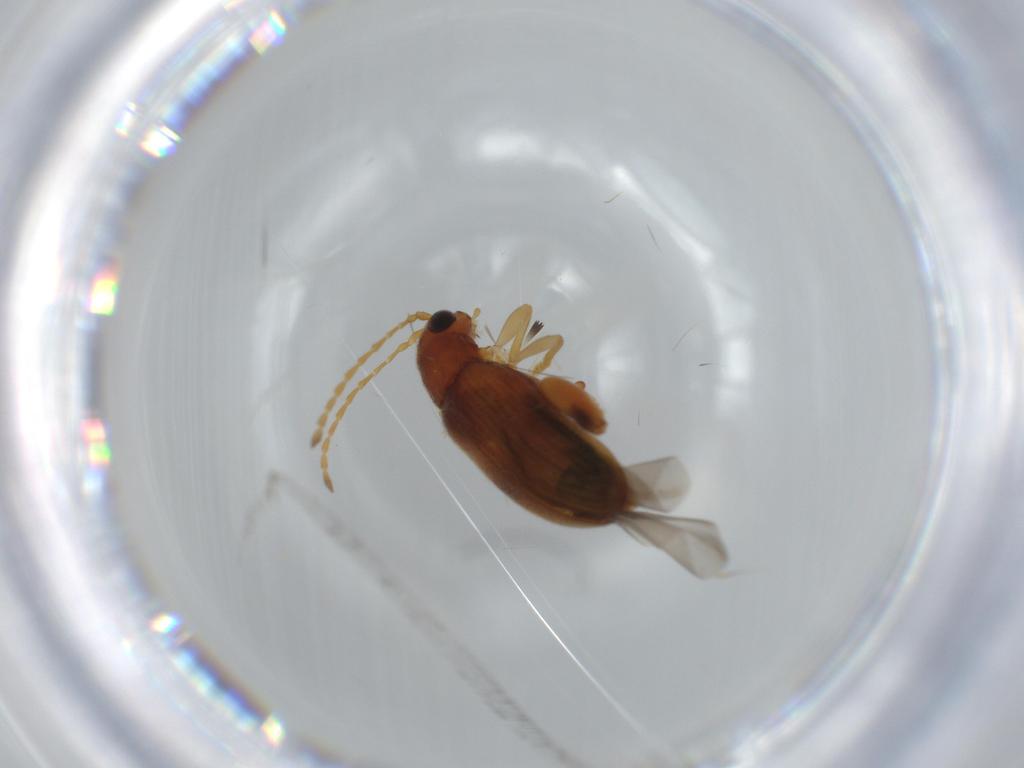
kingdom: Animalia
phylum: Arthropoda
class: Insecta
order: Coleoptera
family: Chrysomelidae
